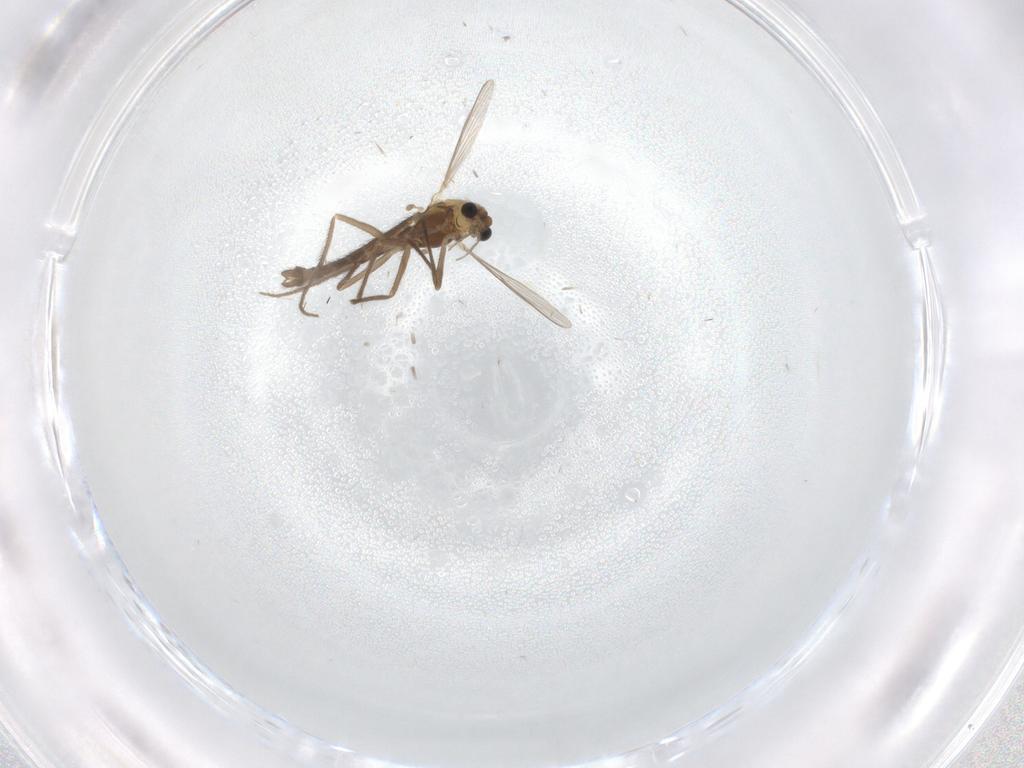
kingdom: Animalia
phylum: Arthropoda
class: Insecta
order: Diptera
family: Chironomidae
